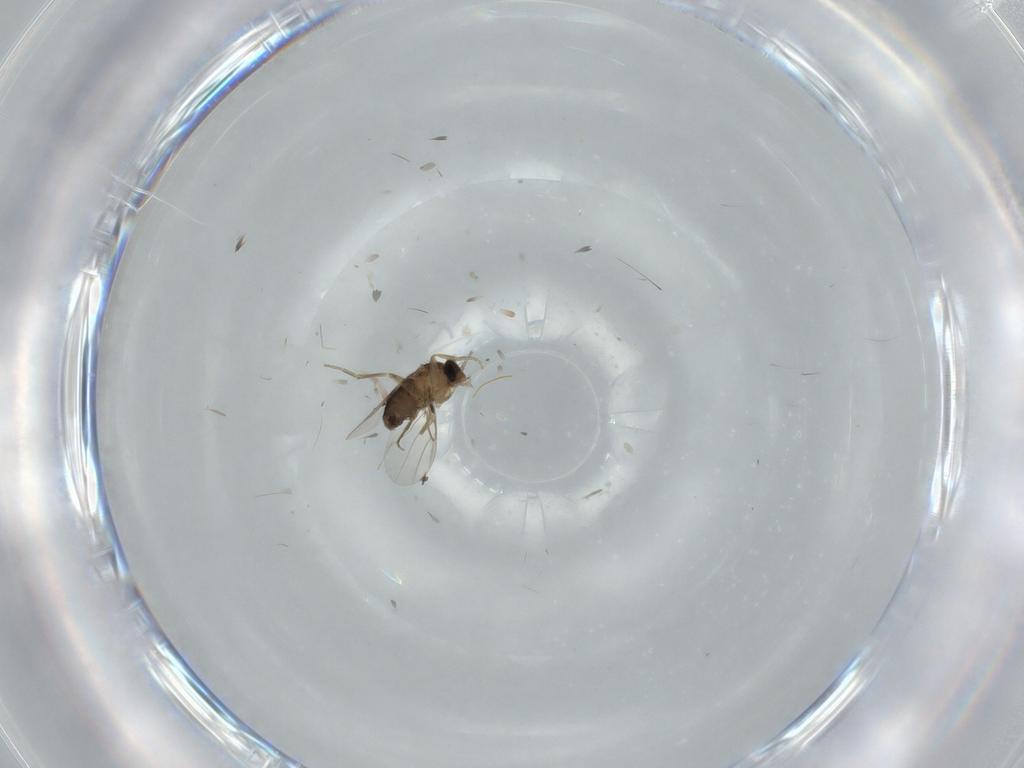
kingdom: Animalia
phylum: Arthropoda
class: Insecta
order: Diptera
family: Phoridae
